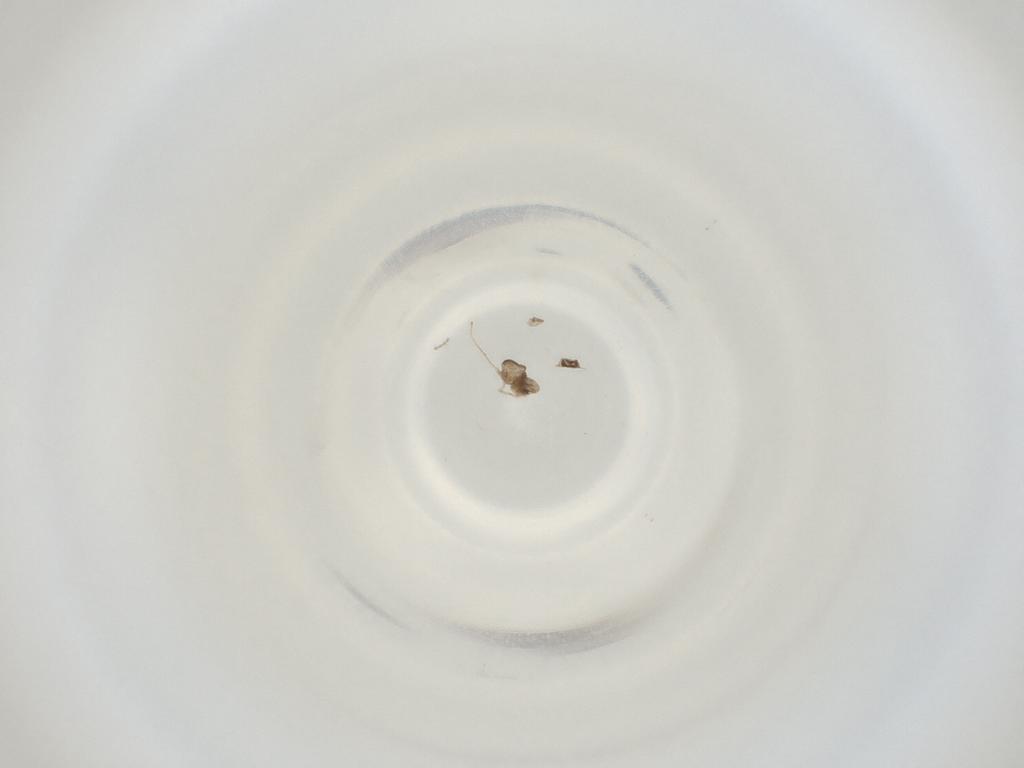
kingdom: Animalia
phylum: Arthropoda
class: Insecta
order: Diptera
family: Cecidomyiidae
